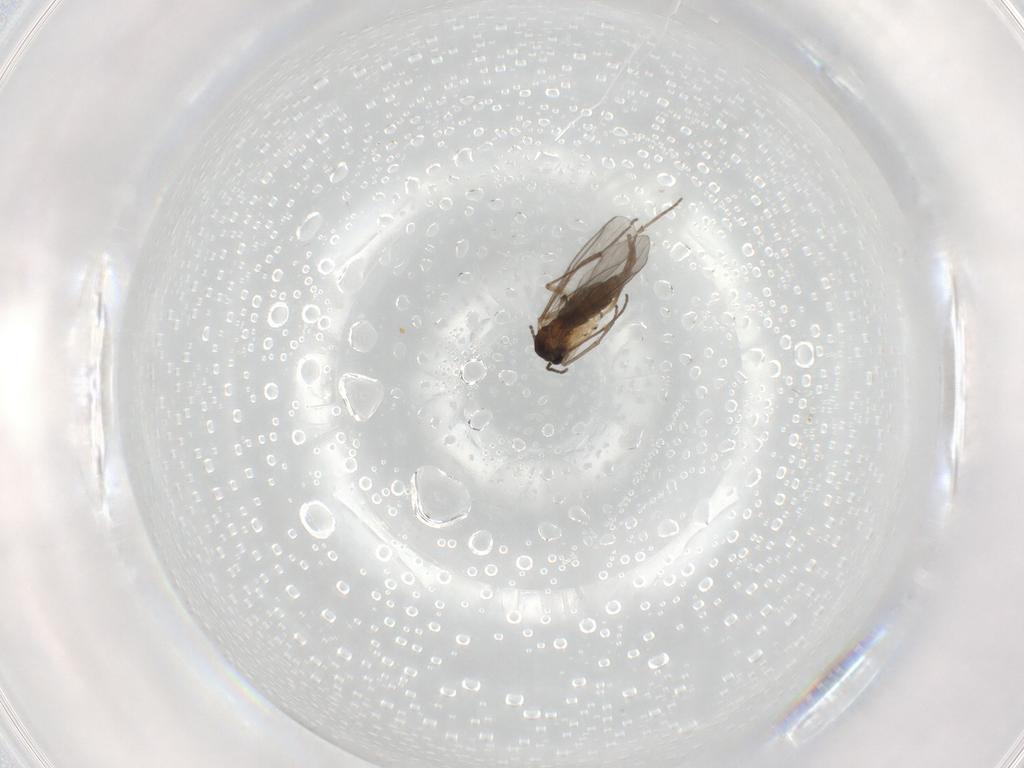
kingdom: Animalia
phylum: Arthropoda
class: Insecta
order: Diptera
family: Sciaridae
